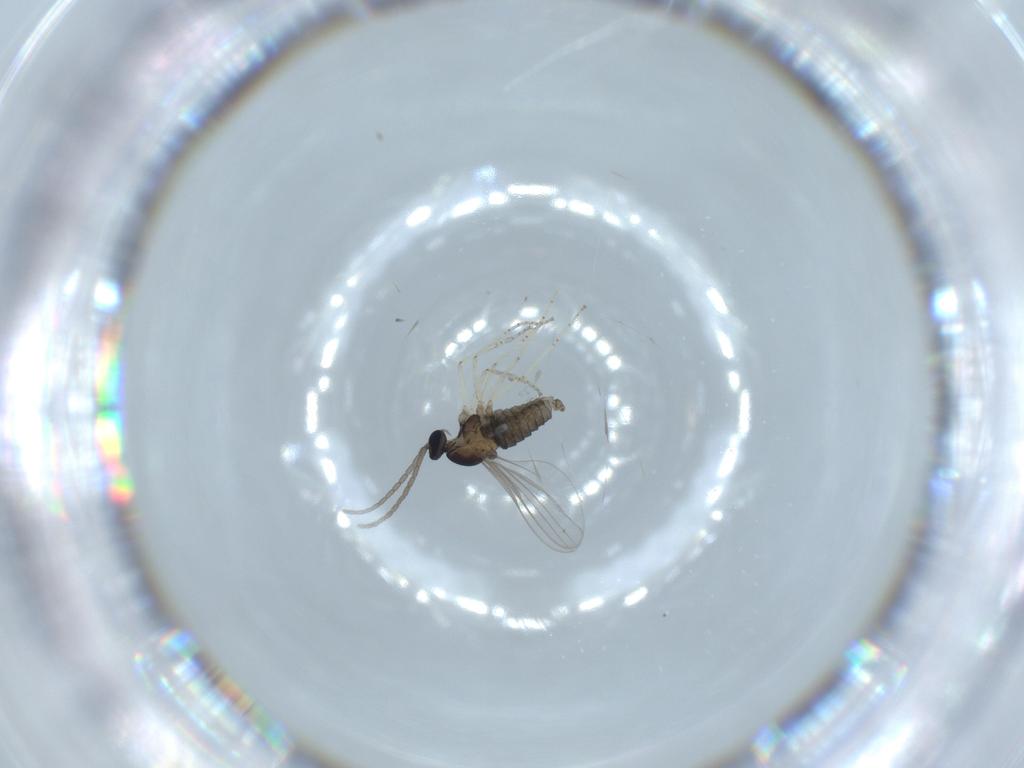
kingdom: Animalia
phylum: Arthropoda
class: Insecta
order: Diptera
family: Cecidomyiidae
